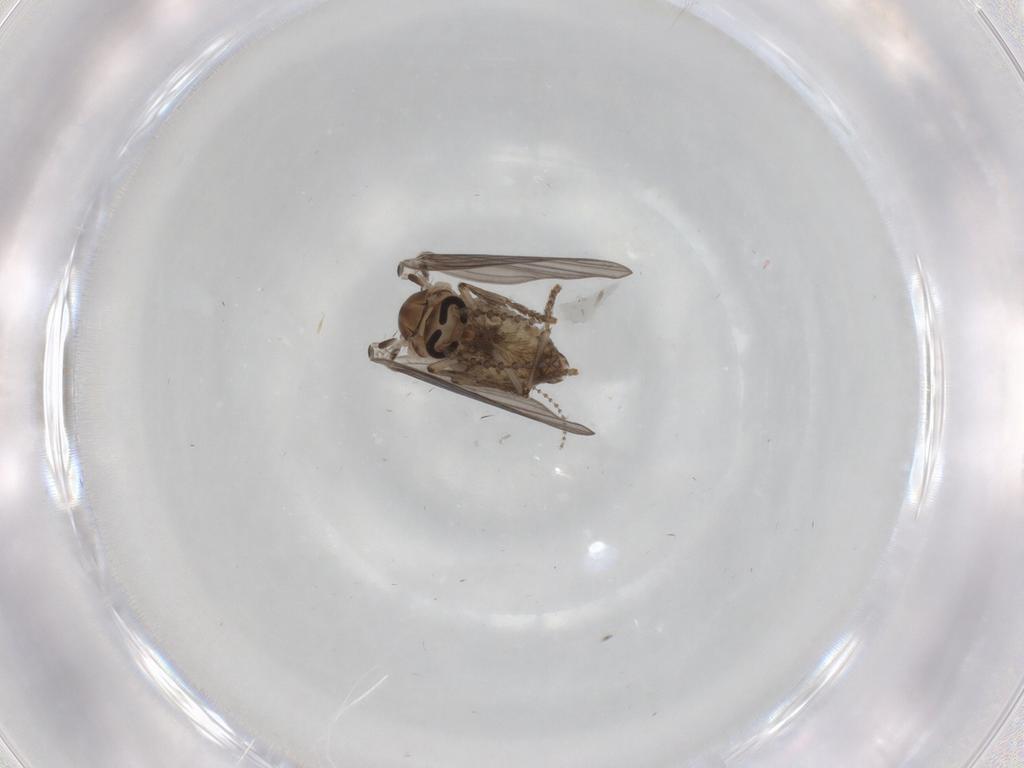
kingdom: Animalia
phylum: Arthropoda
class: Insecta
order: Diptera
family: Psychodidae
